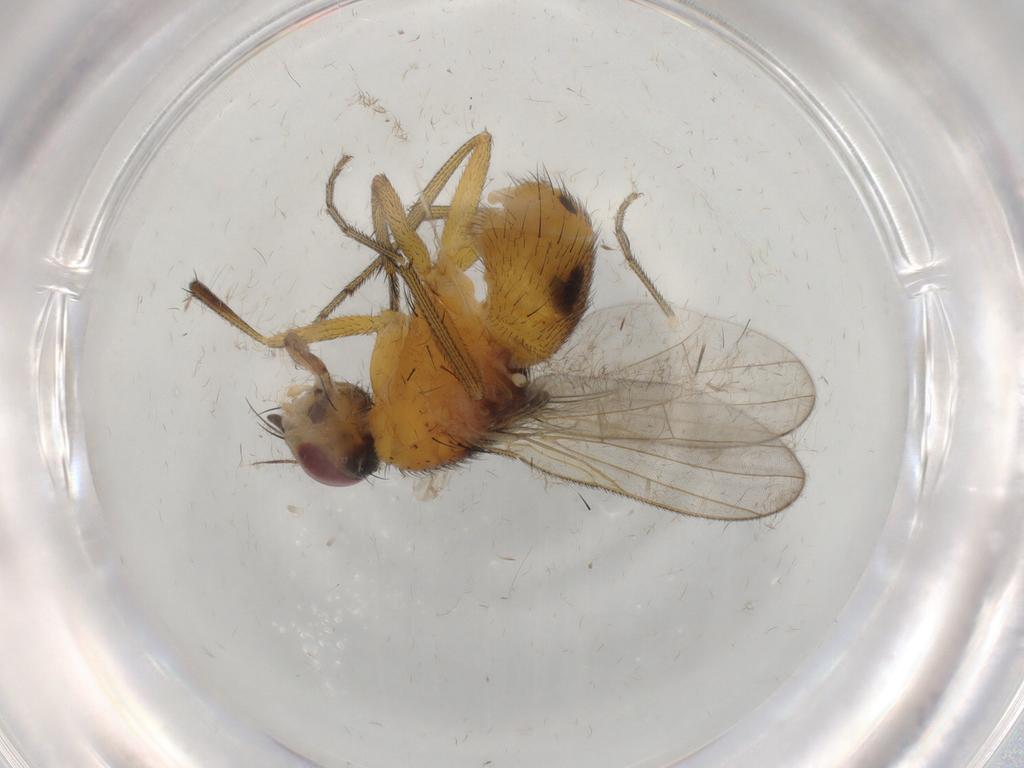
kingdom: Animalia
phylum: Arthropoda
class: Insecta
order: Diptera
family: Muscidae
